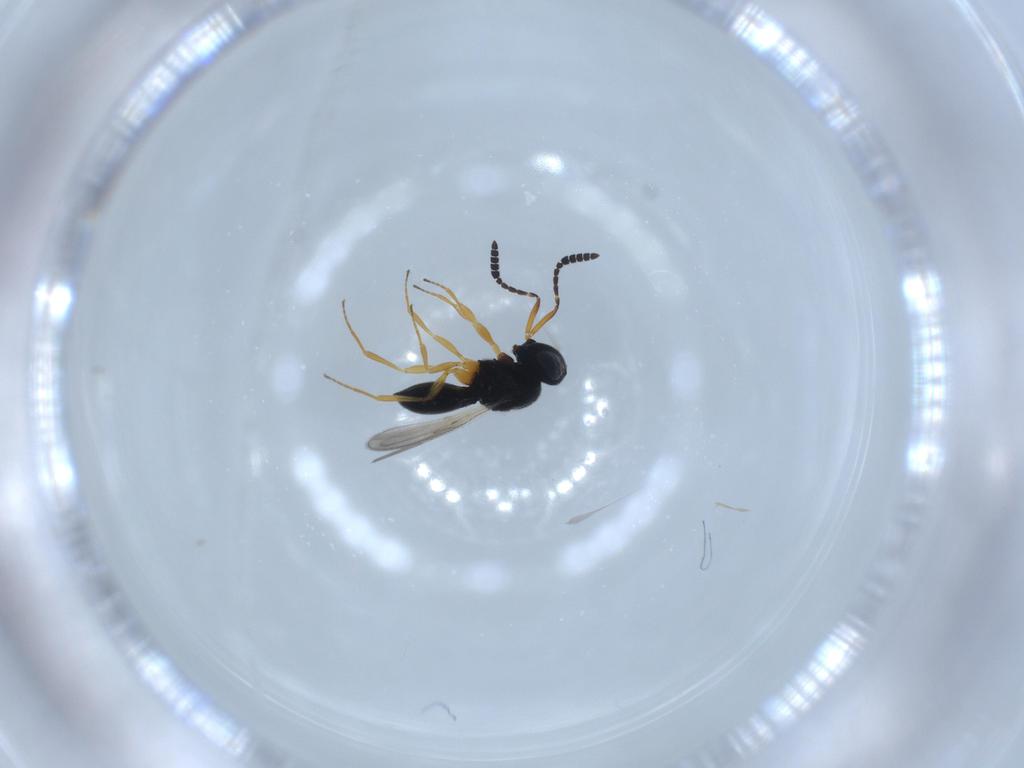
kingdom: Animalia
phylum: Arthropoda
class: Insecta
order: Hymenoptera
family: Scelionidae
